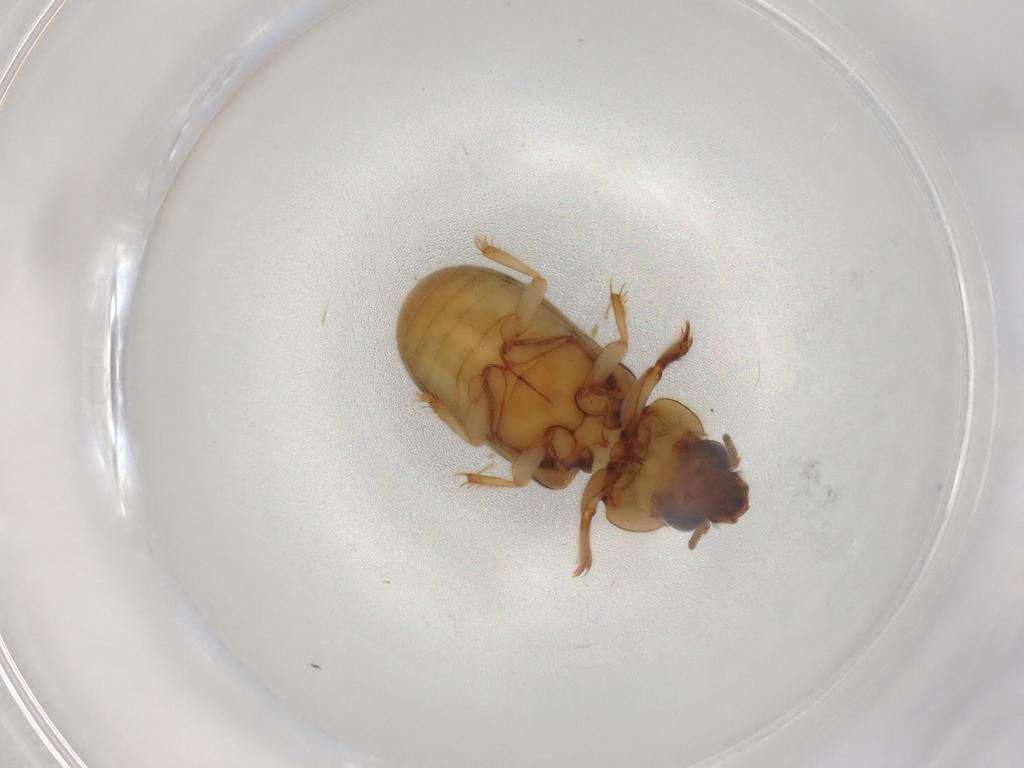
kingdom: Animalia
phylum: Arthropoda
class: Insecta
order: Coleoptera
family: Heteroceridae
